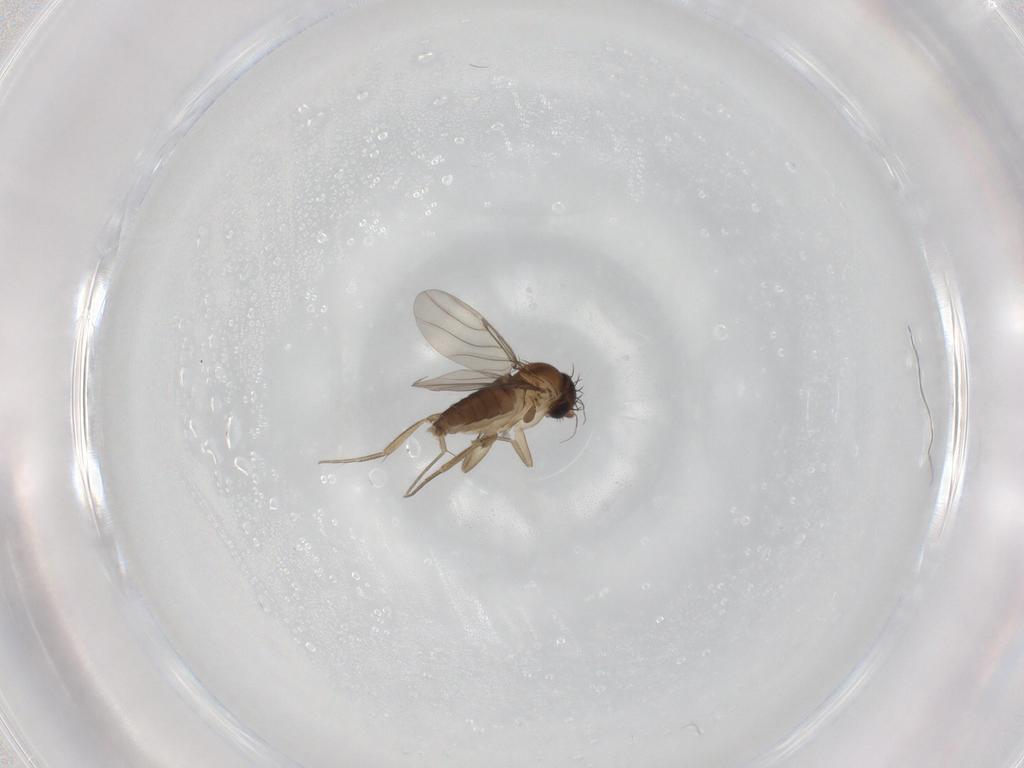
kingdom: Animalia
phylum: Arthropoda
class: Insecta
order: Diptera
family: Phoridae
